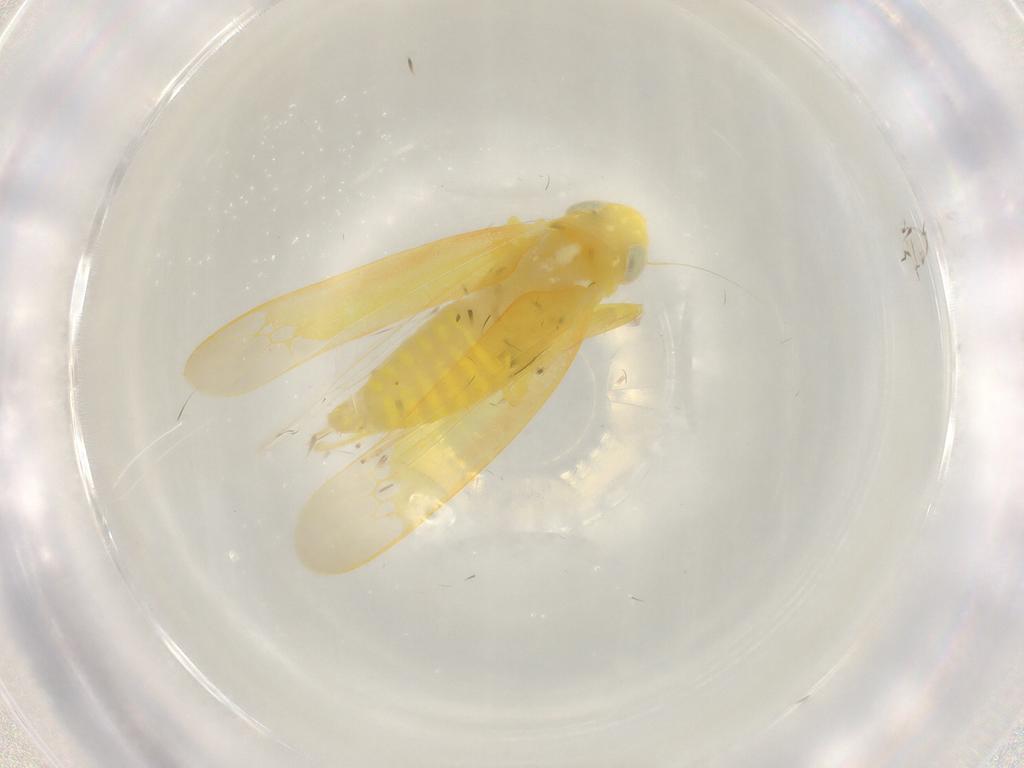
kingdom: Animalia
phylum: Arthropoda
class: Insecta
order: Hemiptera
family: Cicadellidae
